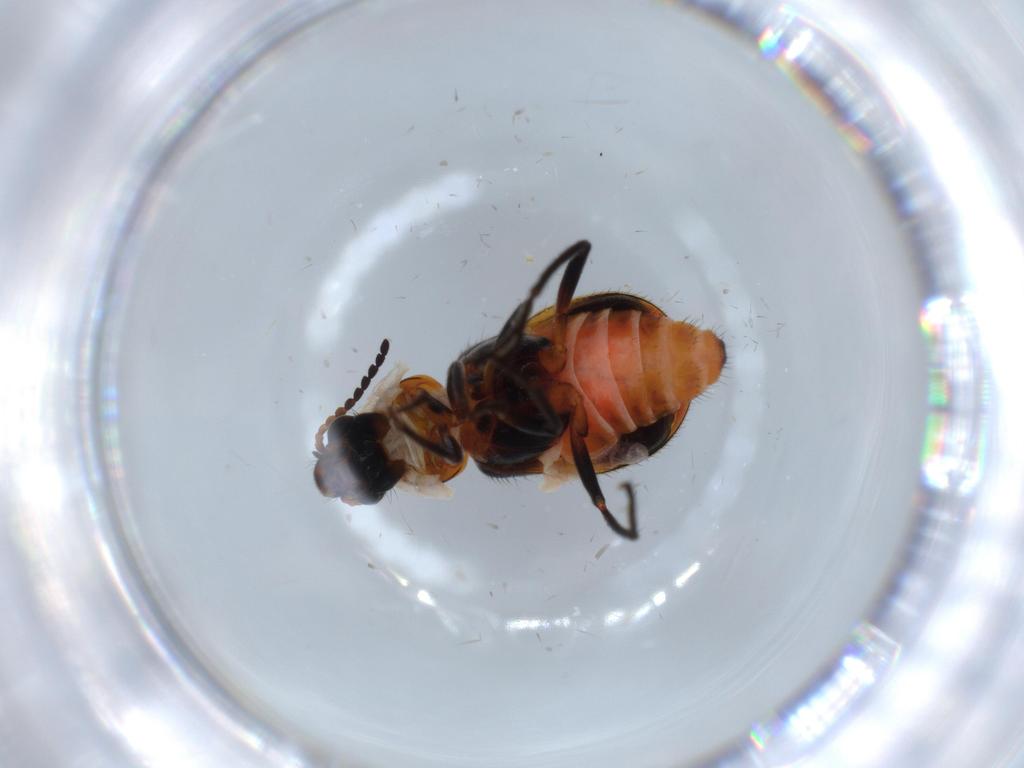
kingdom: Animalia
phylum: Arthropoda
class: Insecta
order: Coleoptera
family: Melyridae
